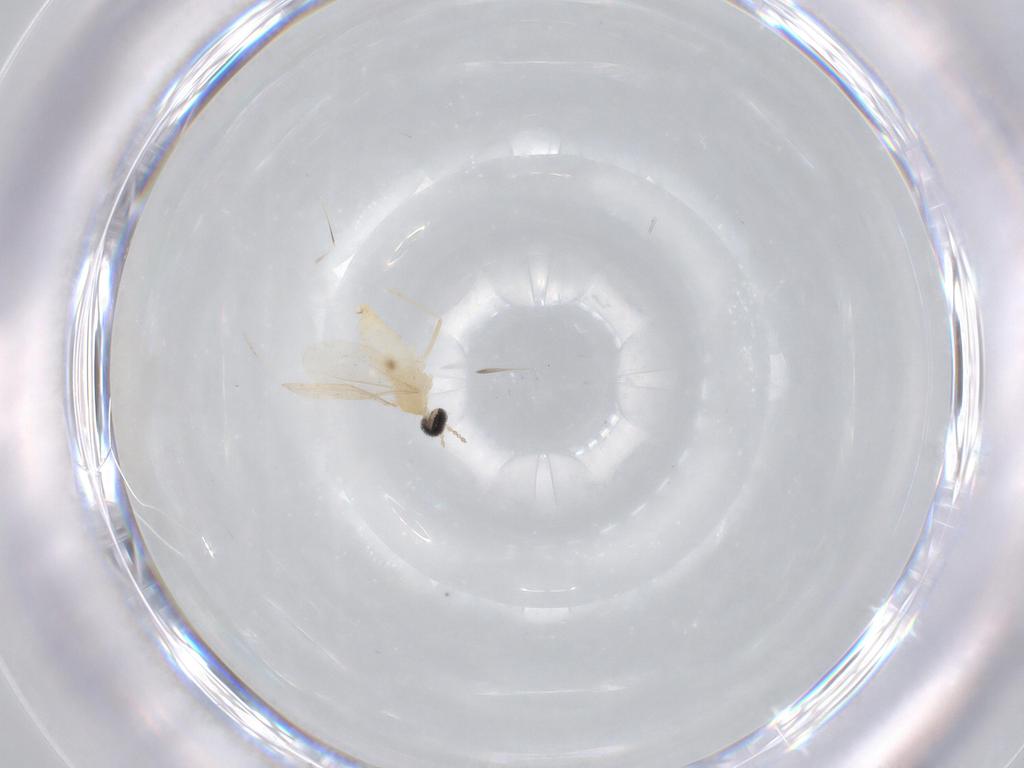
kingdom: Animalia
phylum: Arthropoda
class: Insecta
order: Diptera
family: Cecidomyiidae
